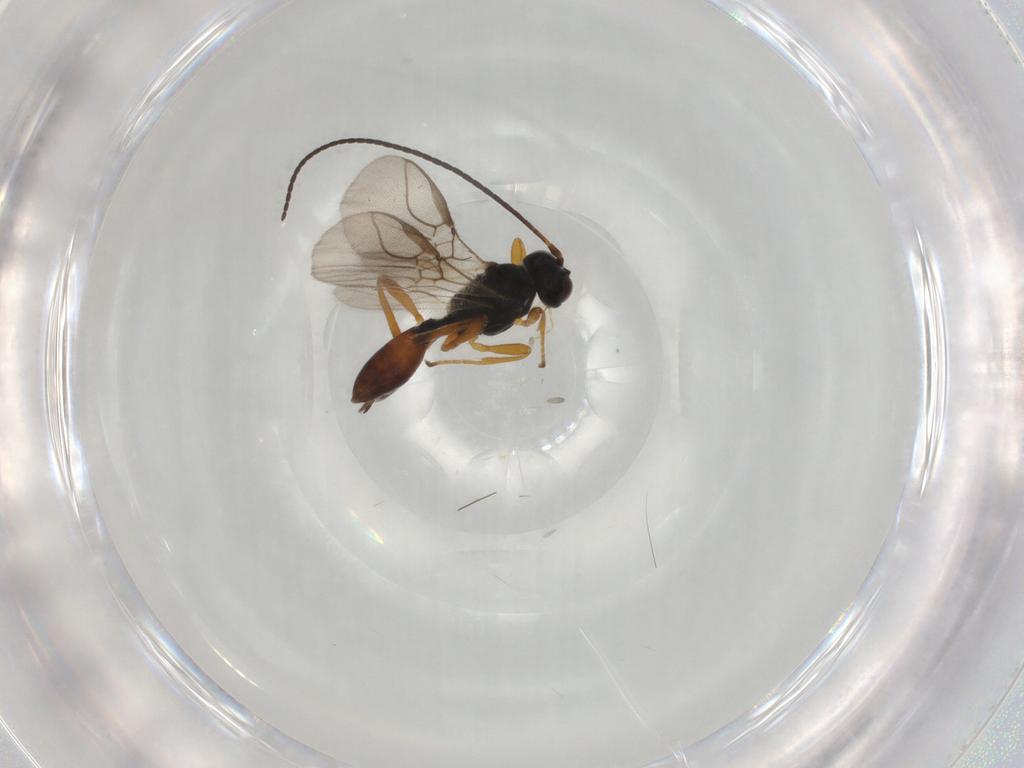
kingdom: Animalia
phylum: Arthropoda
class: Insecta
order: Hymenoptera
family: Braconidae
